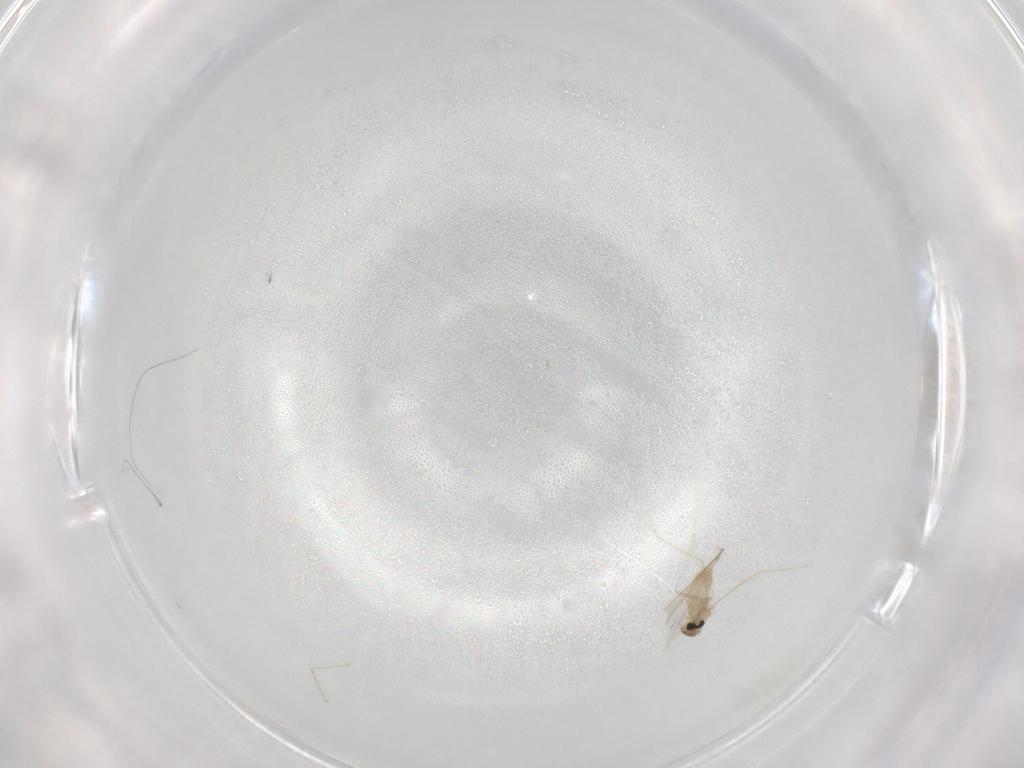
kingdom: Animalia
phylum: Arthropoda
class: Insecta
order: Diptera
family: Cecidomyiidae
